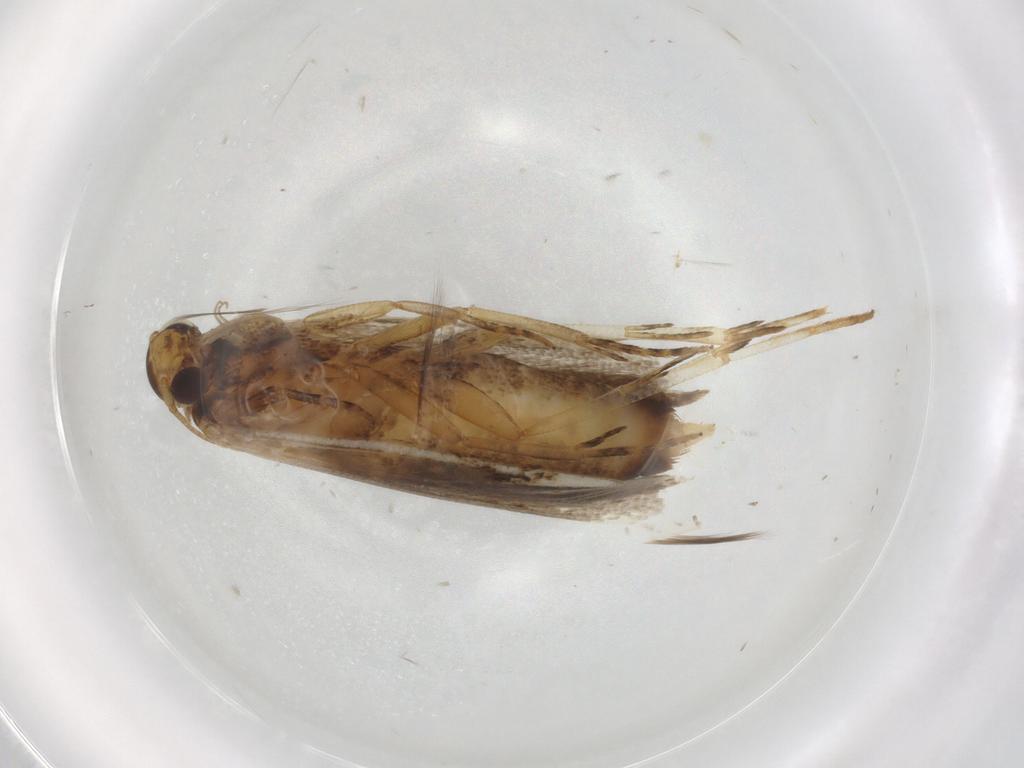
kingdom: Animalia
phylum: Arthropoda
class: Insecta
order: Lepidoptera
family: Gelechiidae
